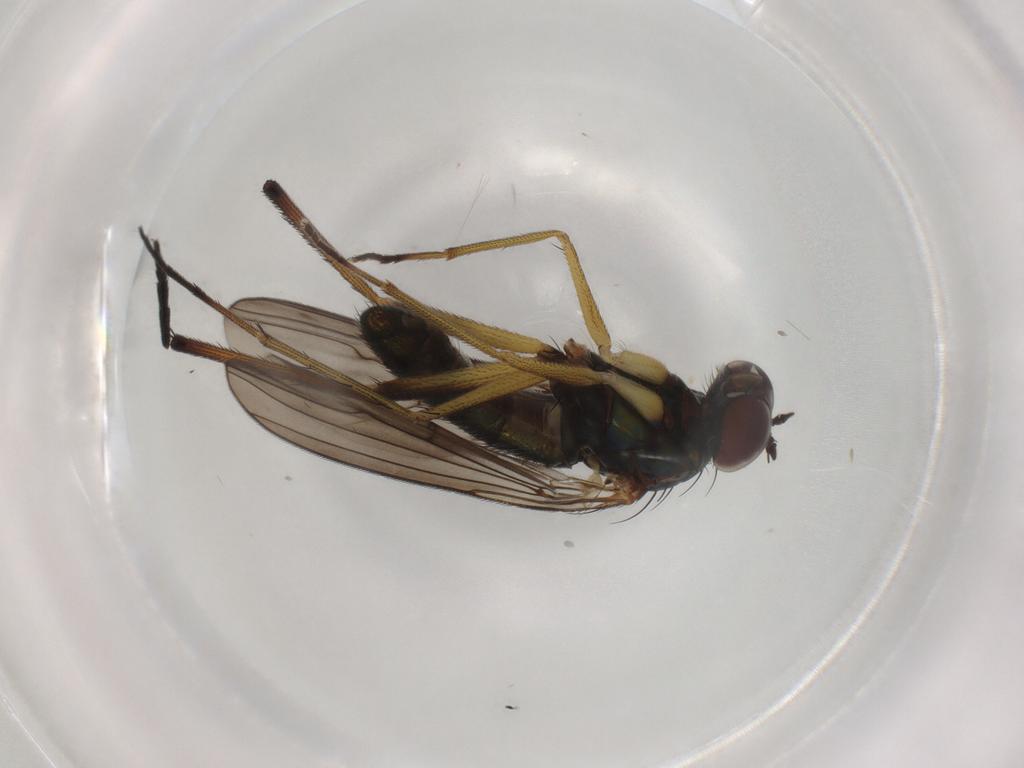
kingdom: Animalia
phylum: Arthropoda
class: Insecta
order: Diptera
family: Dolichopodidae
